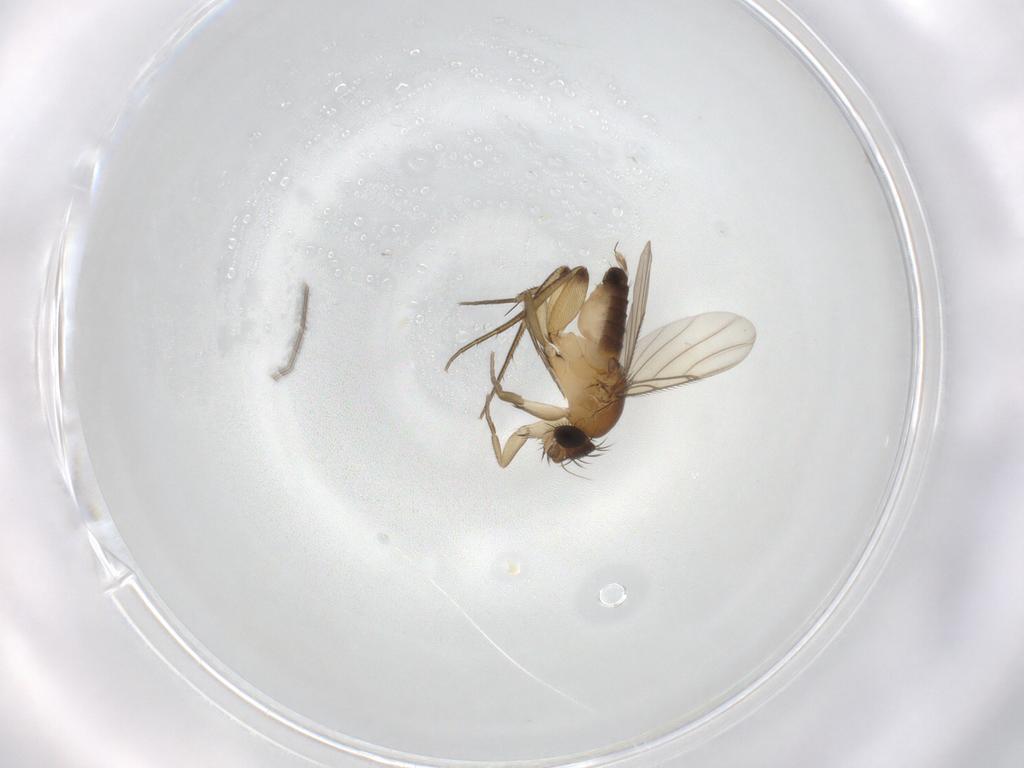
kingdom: Animalia
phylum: Arthropoda
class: Insecta
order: Diptera
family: Phoridae
